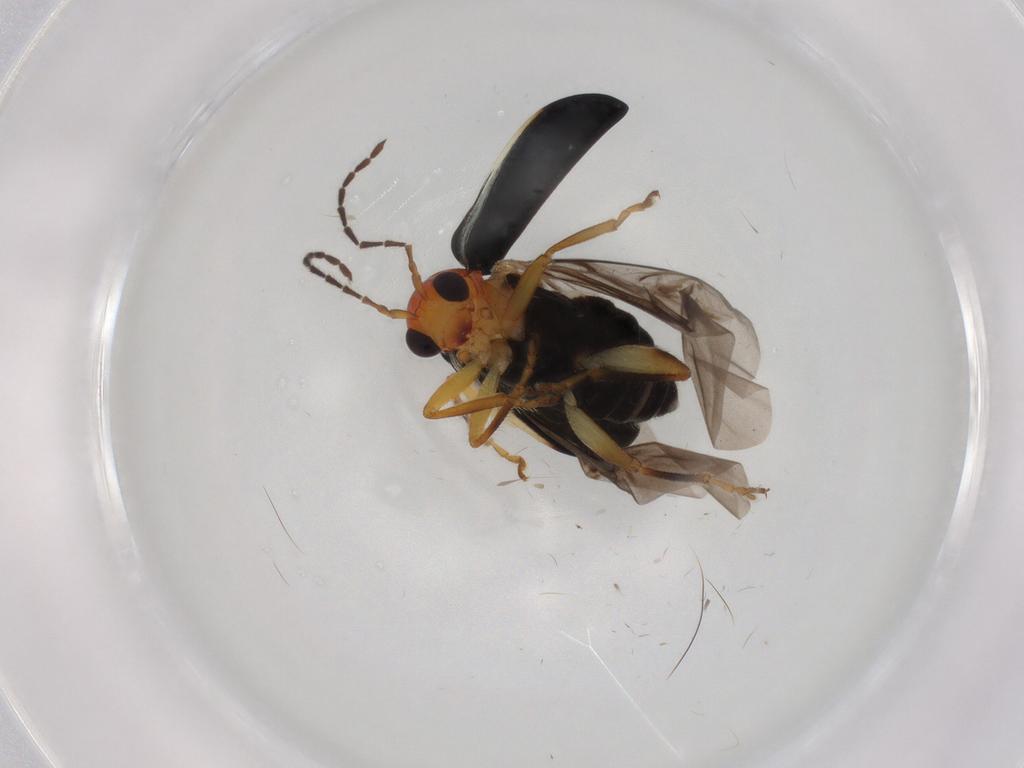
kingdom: Animalia
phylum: Arthropoda
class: Insecta
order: Coleoptera
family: Chrysomelidae
